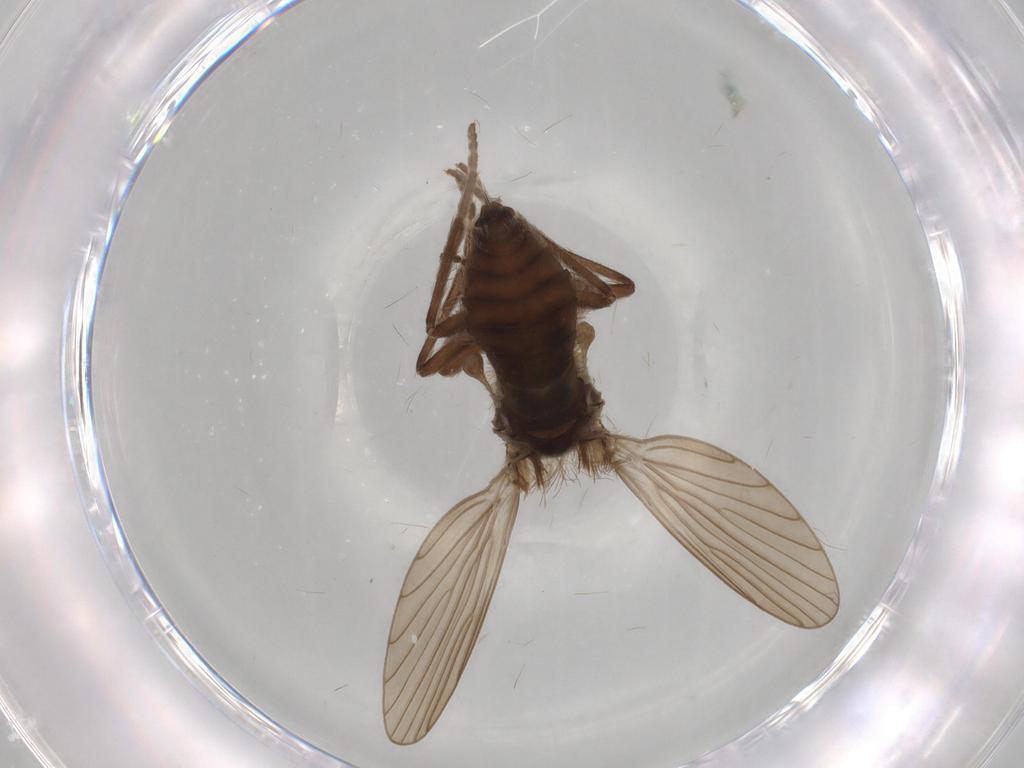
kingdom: Animalia
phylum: Arthropoda
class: Insecta
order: Diptera
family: Psychodidae
